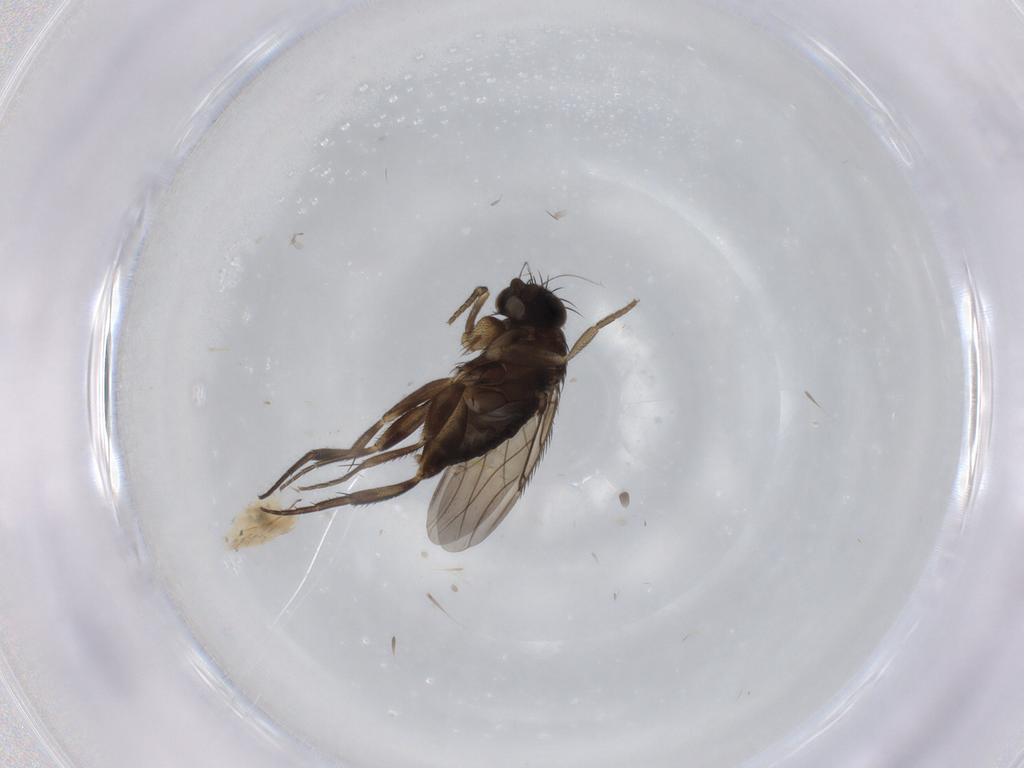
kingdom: Animalia
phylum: Arthropoda
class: Insecta
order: Diptera
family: Phoridae
